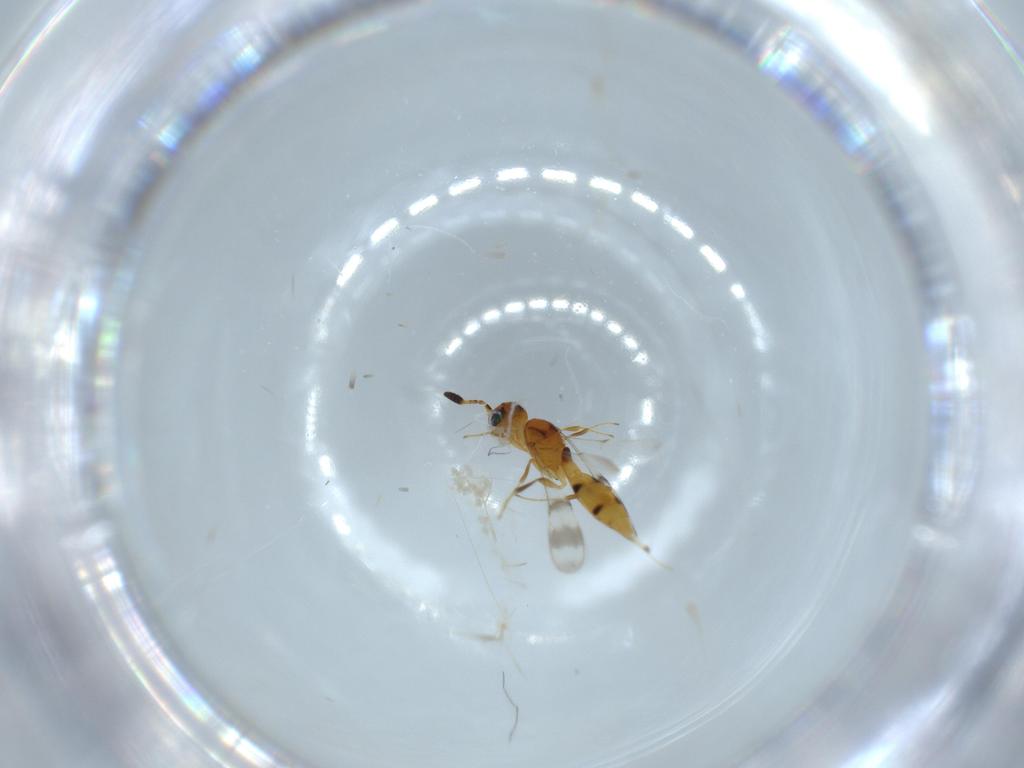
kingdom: Animalia
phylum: Arthropoda
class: Insecta
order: Hymenoptera
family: Scelionidae
